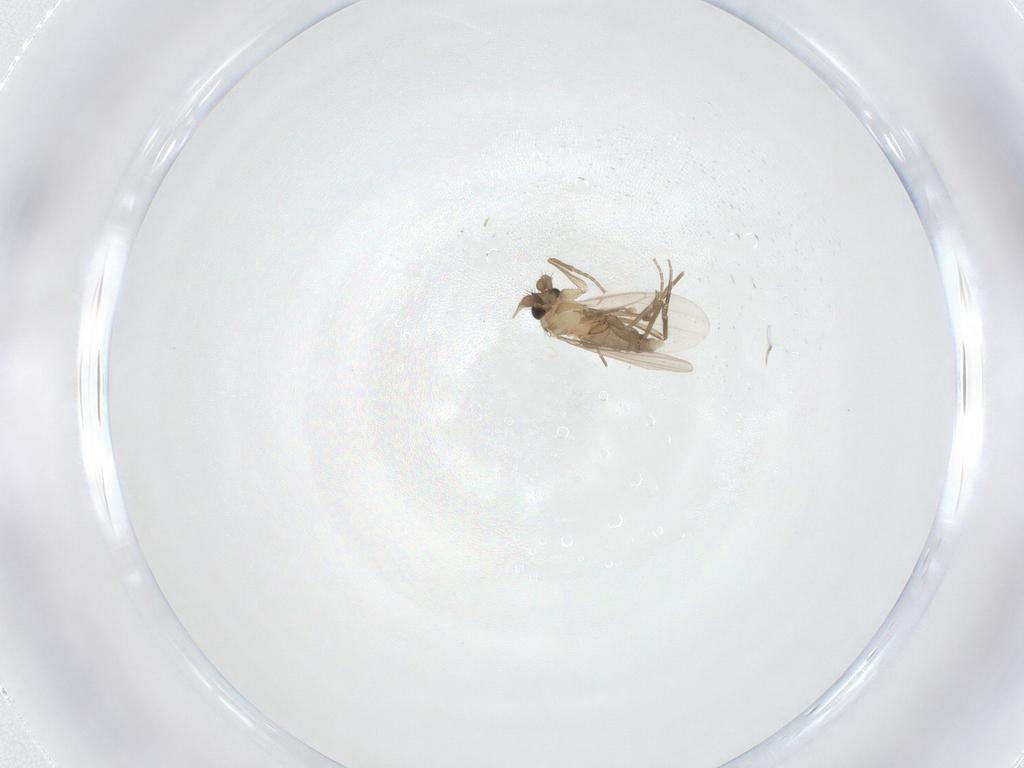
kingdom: Animalia
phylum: Arthropoda
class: Insecta
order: Diptera
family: Phoridae
